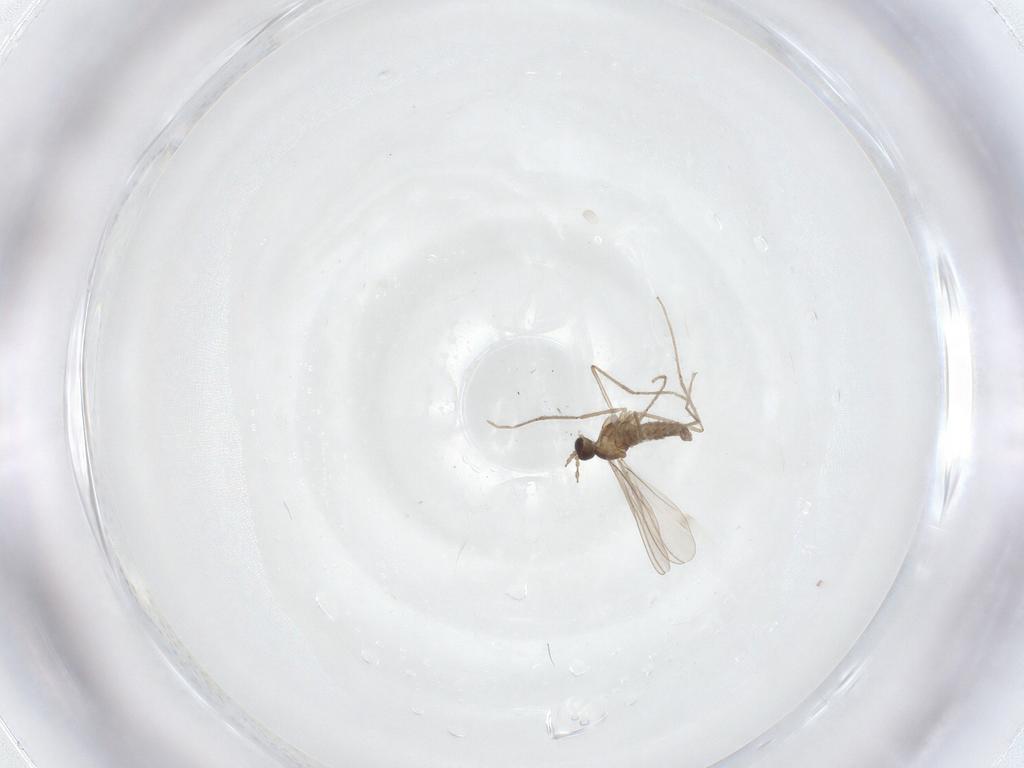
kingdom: Animalia
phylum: Arthropoda
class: Insecta
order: Diptera
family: Cecidomyiidae
